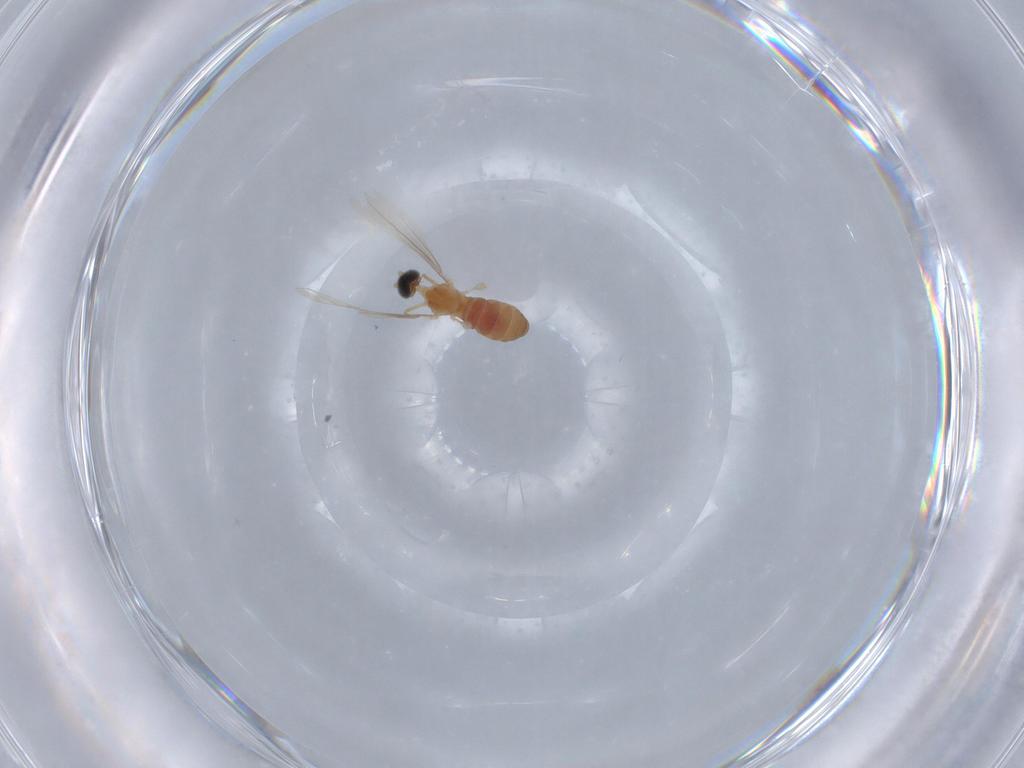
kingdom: Animalia
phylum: Arthropoda
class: Insecta
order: Diptera
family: Cecidomyiidae
